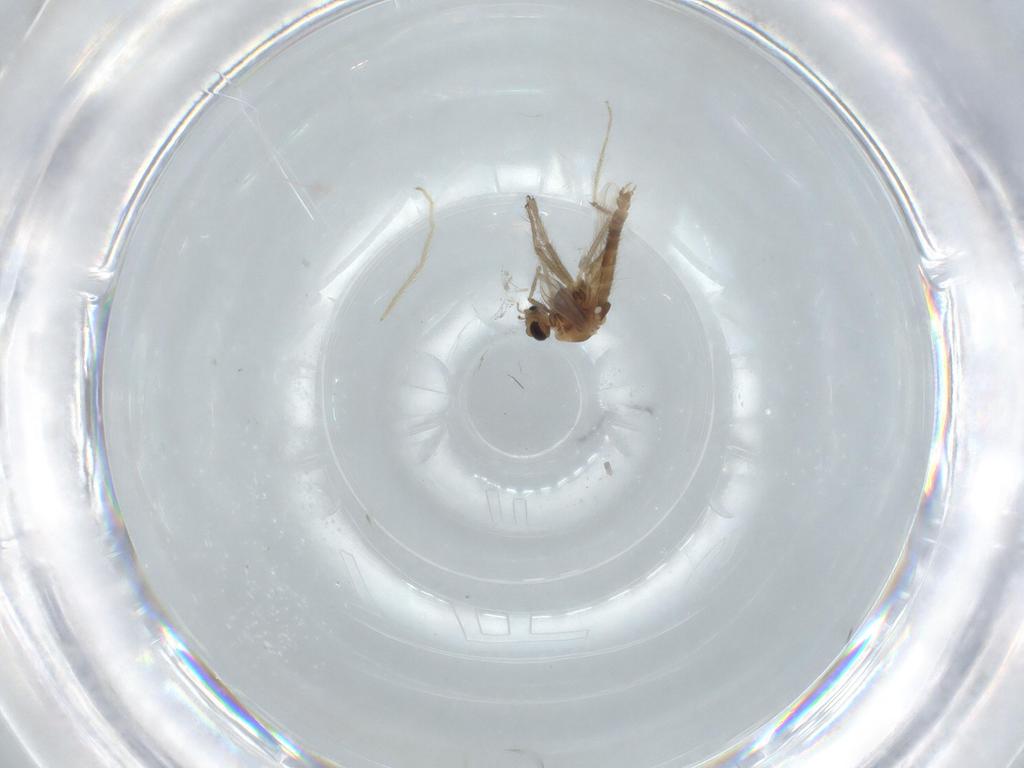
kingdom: Animalia
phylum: Arthropoda
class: Insecta
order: Diptera
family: Chironomidae
